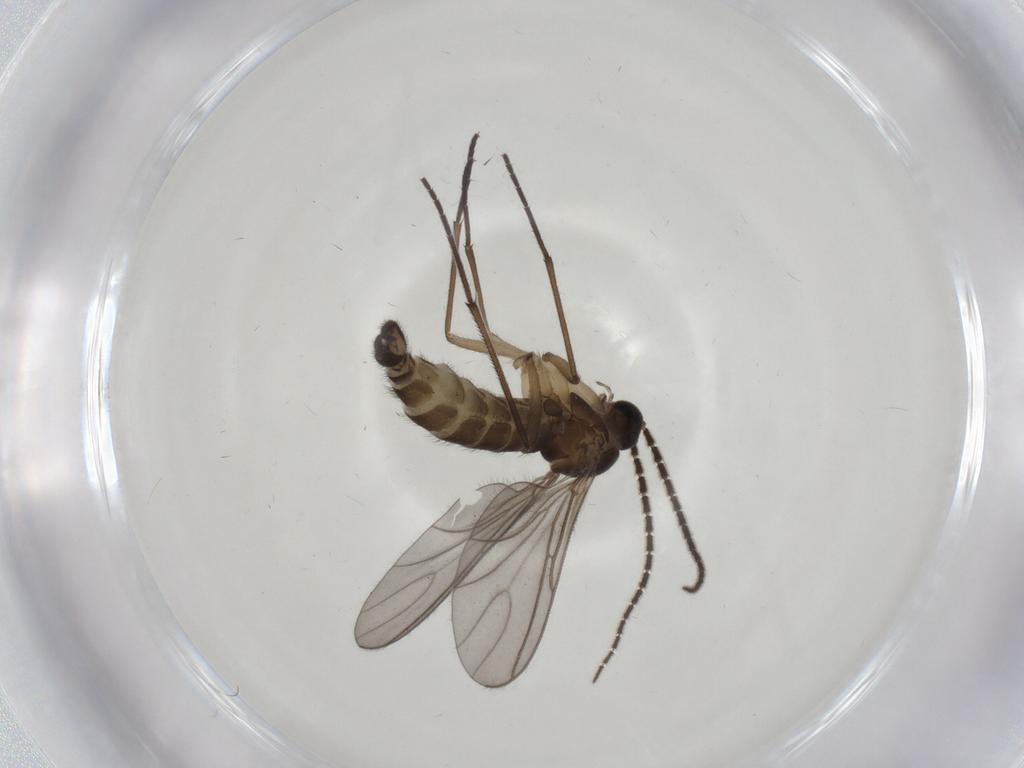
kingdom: Animalia
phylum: Arthropoda
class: Insecta
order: Diptera
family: Sciaridae
